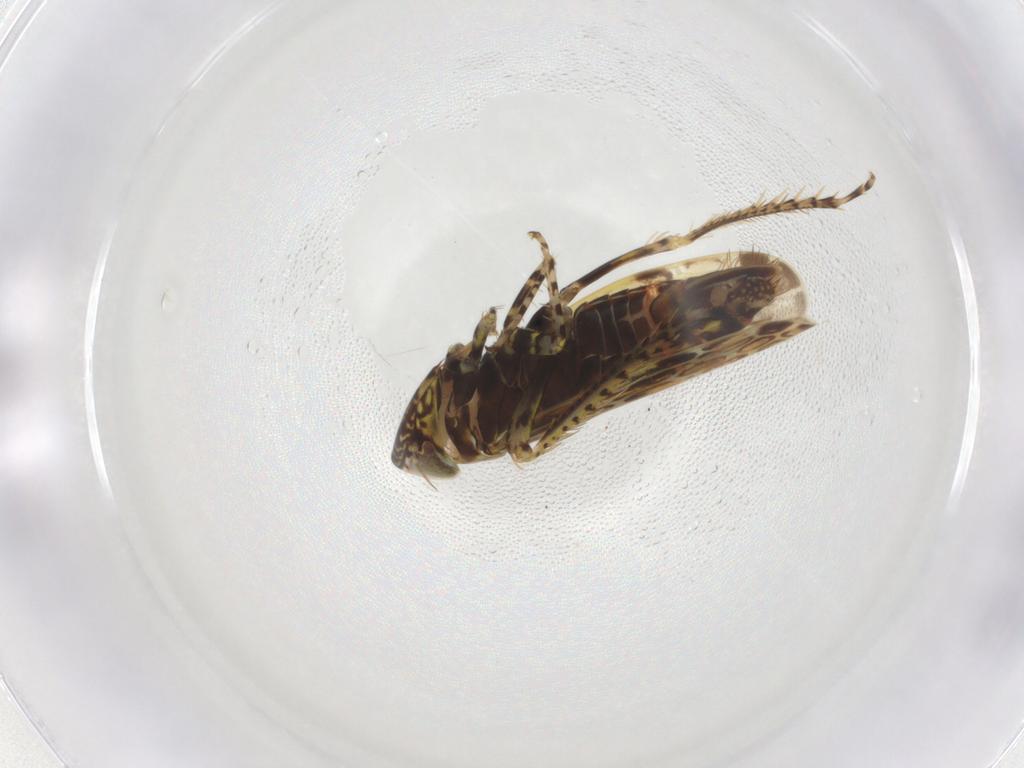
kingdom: Animalia
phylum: Arthropoda
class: Insecta
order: Hemiptera
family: Cicadellidae
